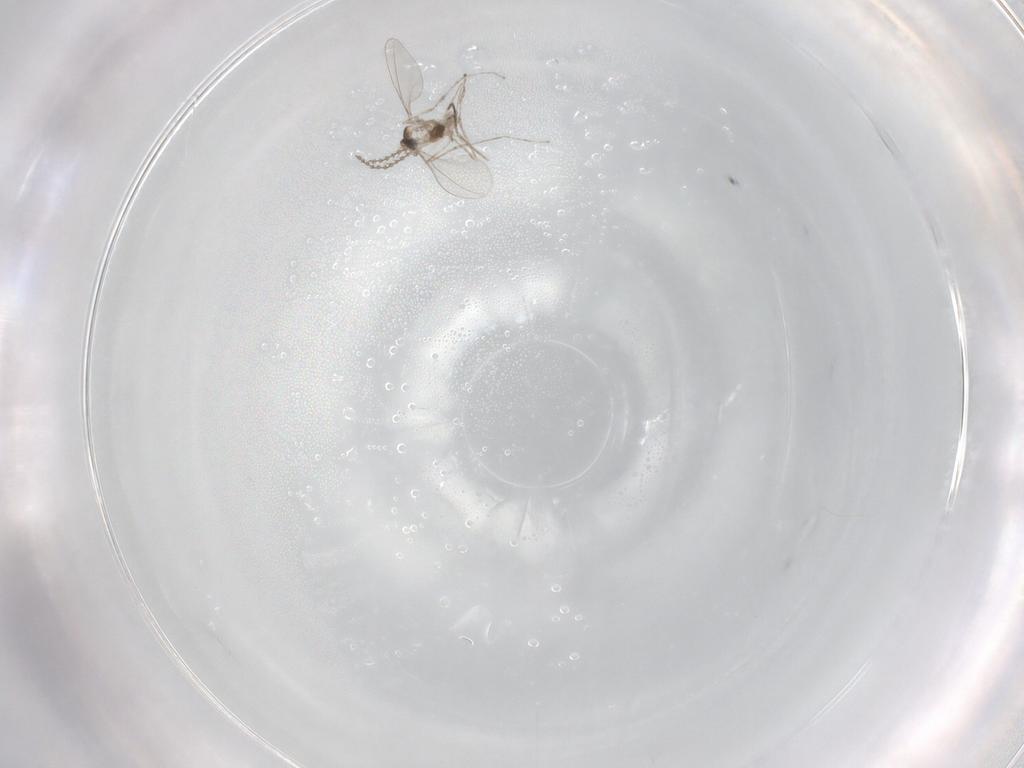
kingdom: Animalia
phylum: Arthropoda
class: Insecta
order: Diptera
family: Cecidomyiidae
